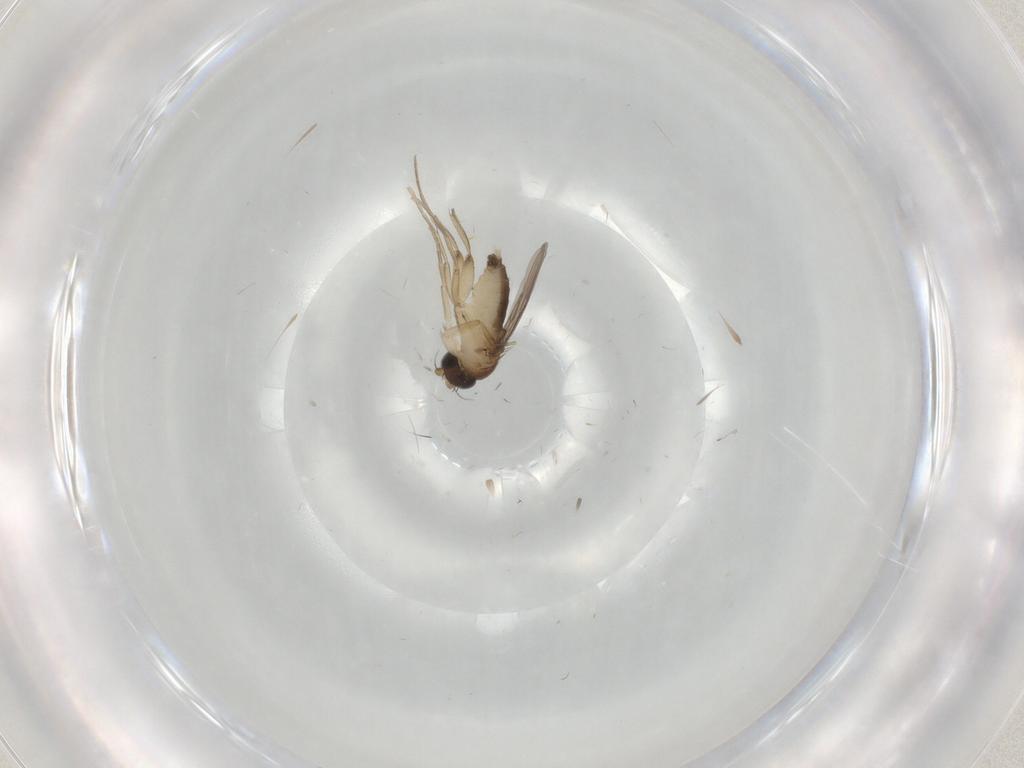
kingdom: Animalia
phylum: Arthropoda
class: Insecta
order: Diptera
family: Phoridae
